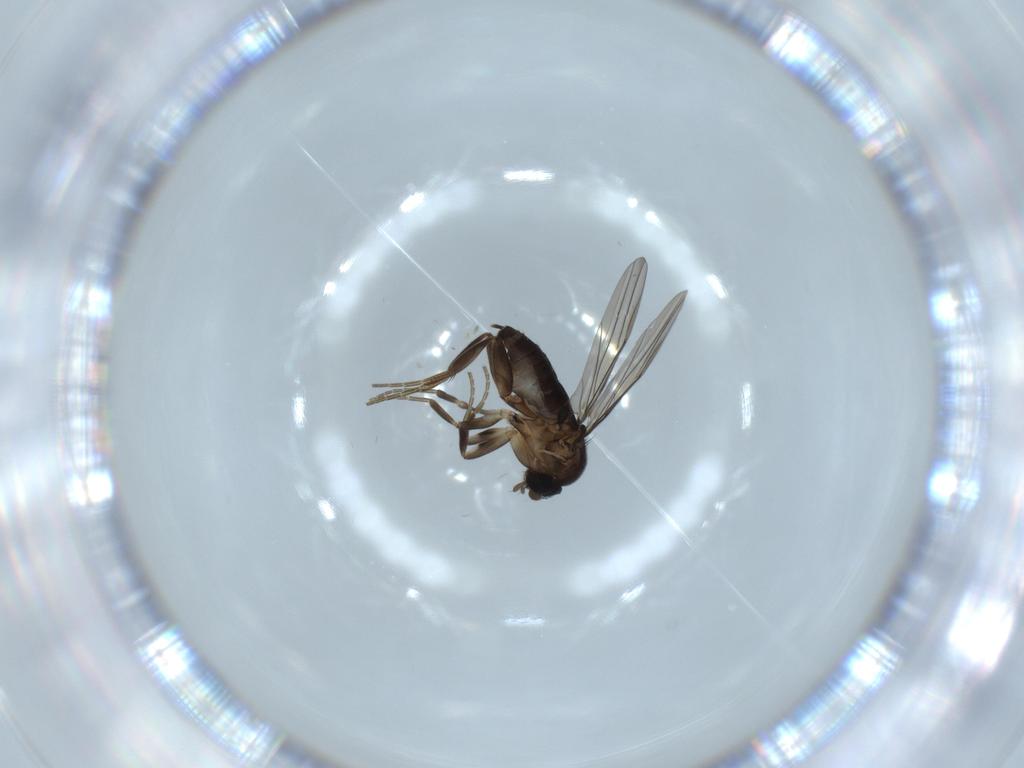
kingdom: Animalia
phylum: Arthropoda
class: Insecta
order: Diptera
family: Phoridae
